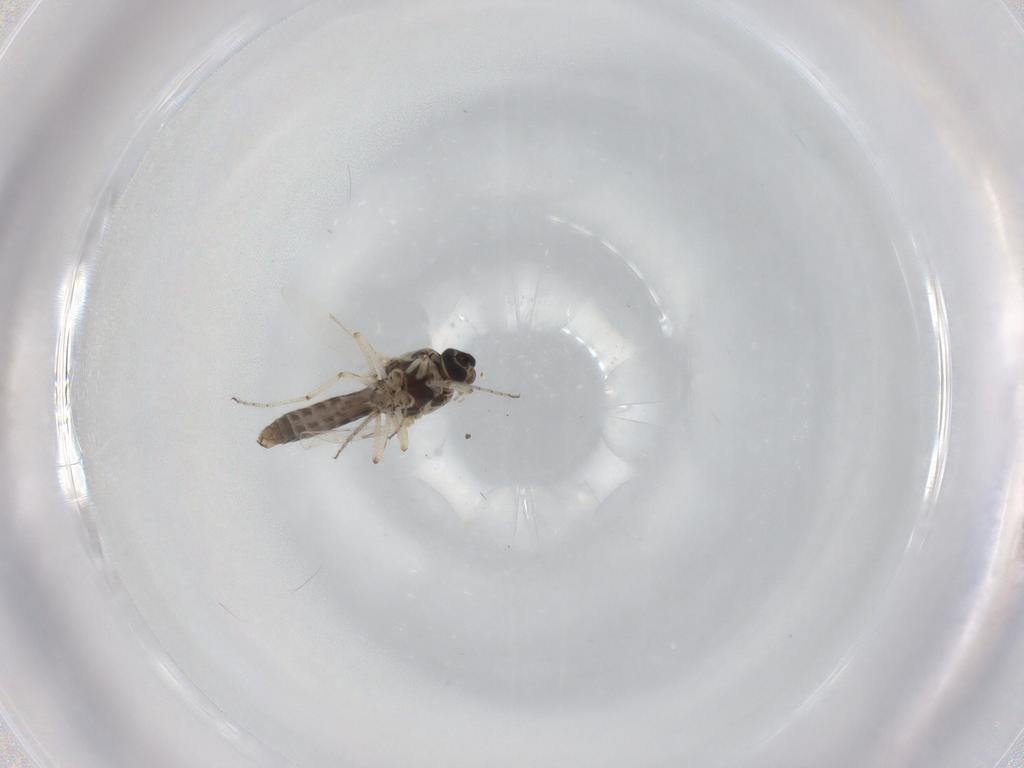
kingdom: Animalia
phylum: Arthropoda
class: Insecta
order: Diptera
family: Ceratopogonidae
